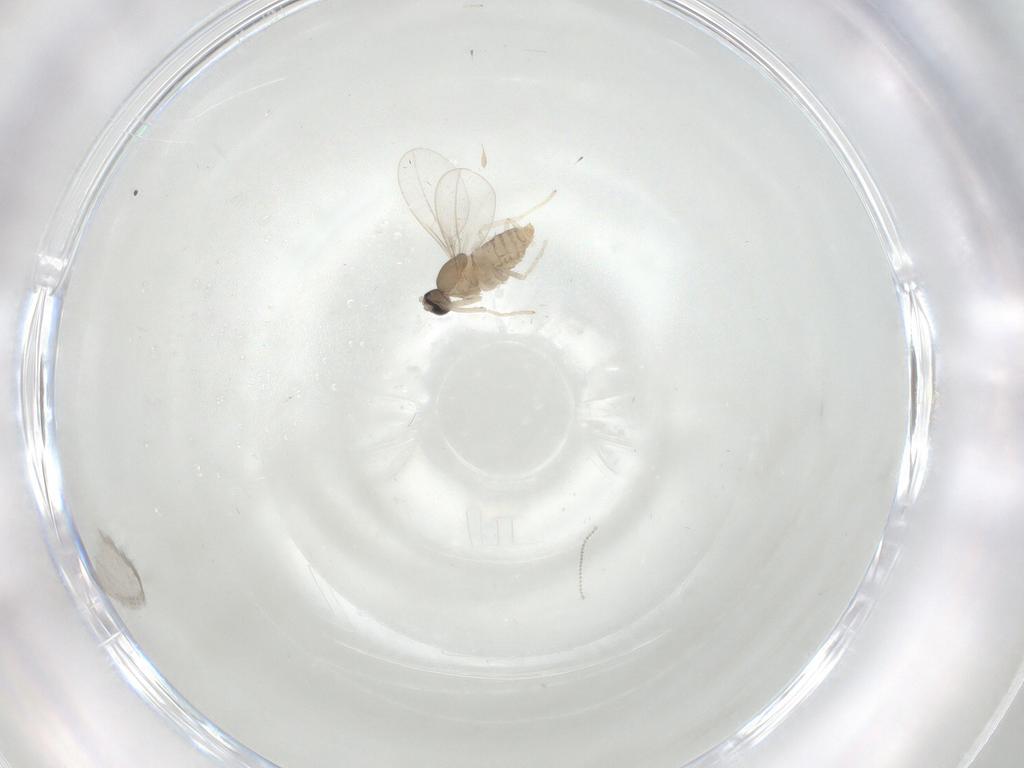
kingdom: Animalia
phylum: Arthropoda
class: Insecta
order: Diptera
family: Cecidomyiidae
